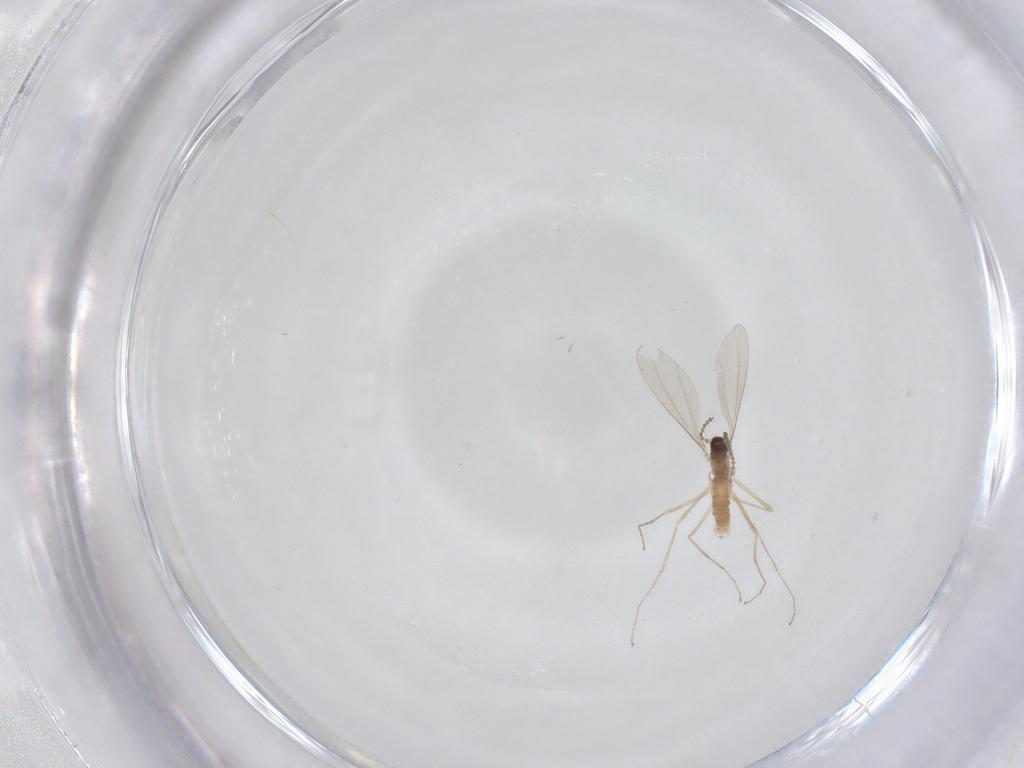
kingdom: Animalia
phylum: Arthropoda
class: Insecta
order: Diptera
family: Cecidomyiidae
